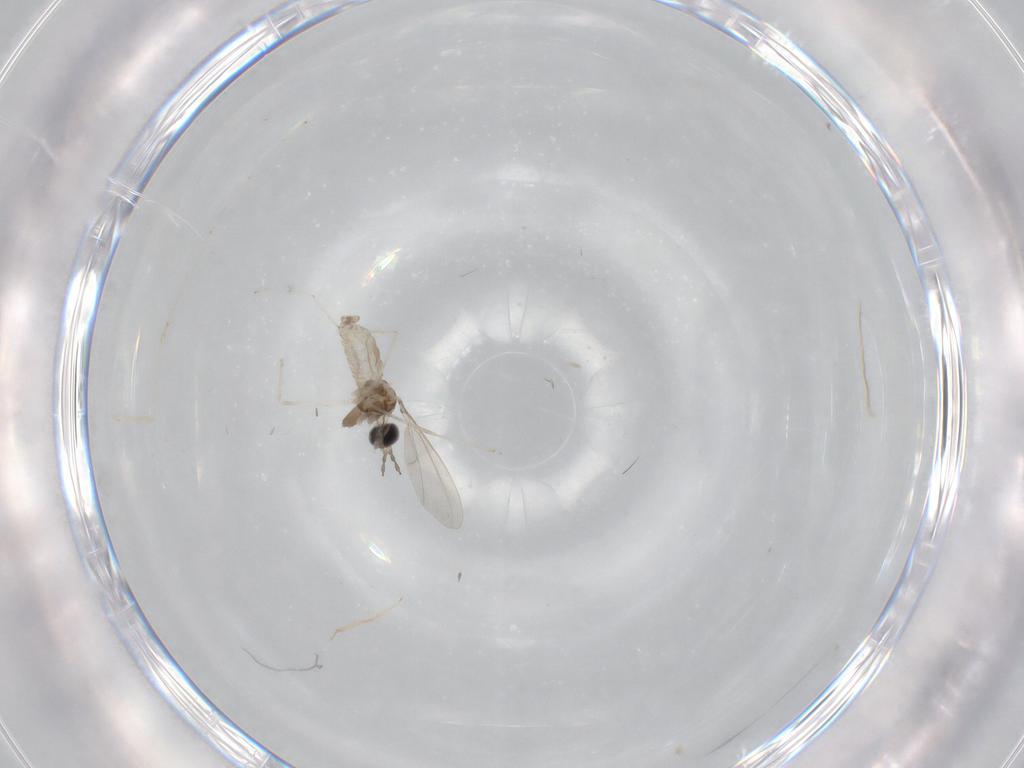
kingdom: Animalia
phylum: Arthropoda
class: Insecta
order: Diptera
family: Cecidomyiidae
